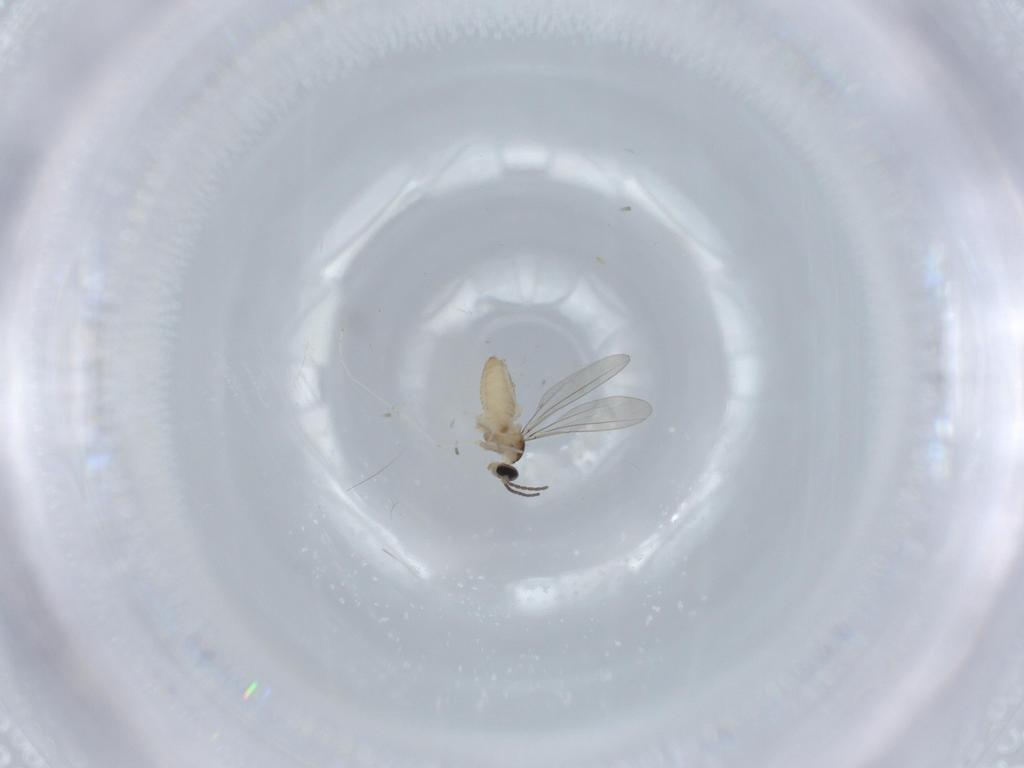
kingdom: Animalia
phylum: Arthropoda
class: Insecta
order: Diptera
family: Cecidomyiidae
